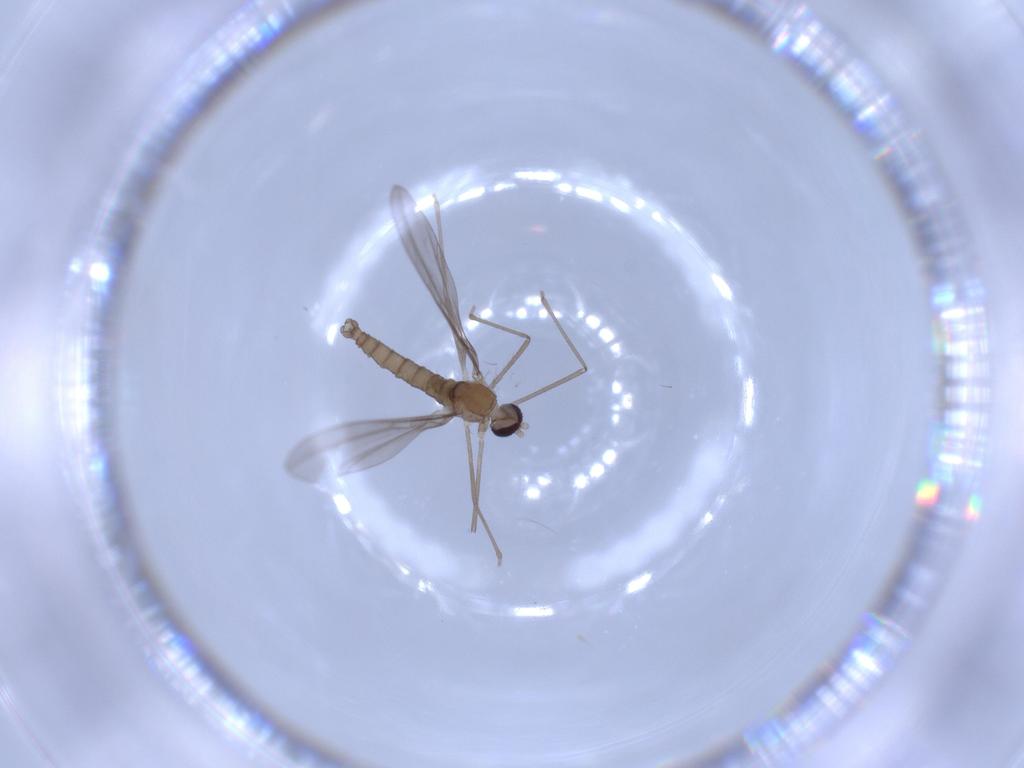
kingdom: Animalia
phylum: Arthropoda
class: Insecta
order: Diptera
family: Cecidomyiidae
